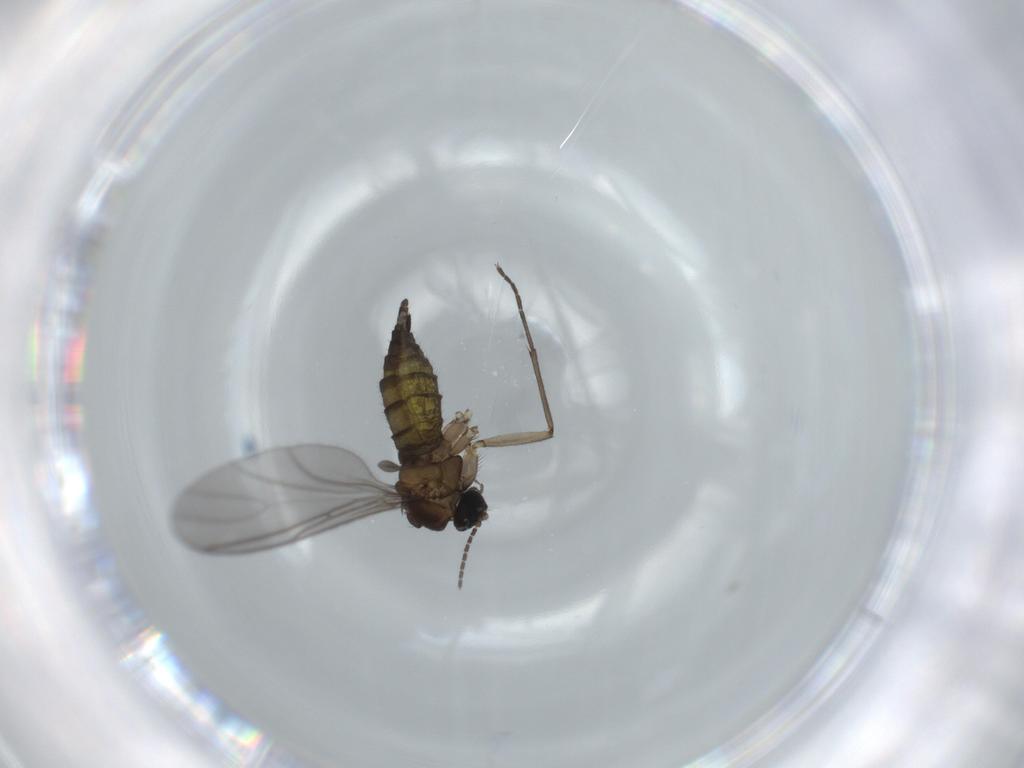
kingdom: Animalia
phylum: Arthropoda
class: Insecta
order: Diptera
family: Sciaridae
